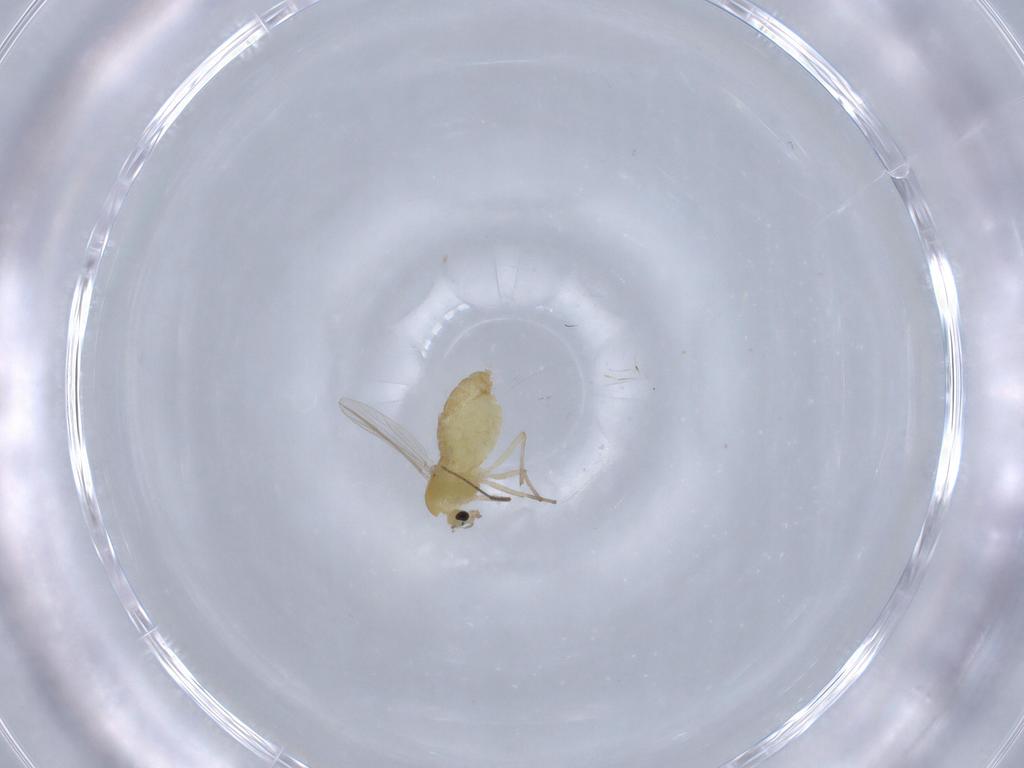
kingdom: Animalia
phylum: Arthropoda
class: Insecta
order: Diptera
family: Chironomidae
